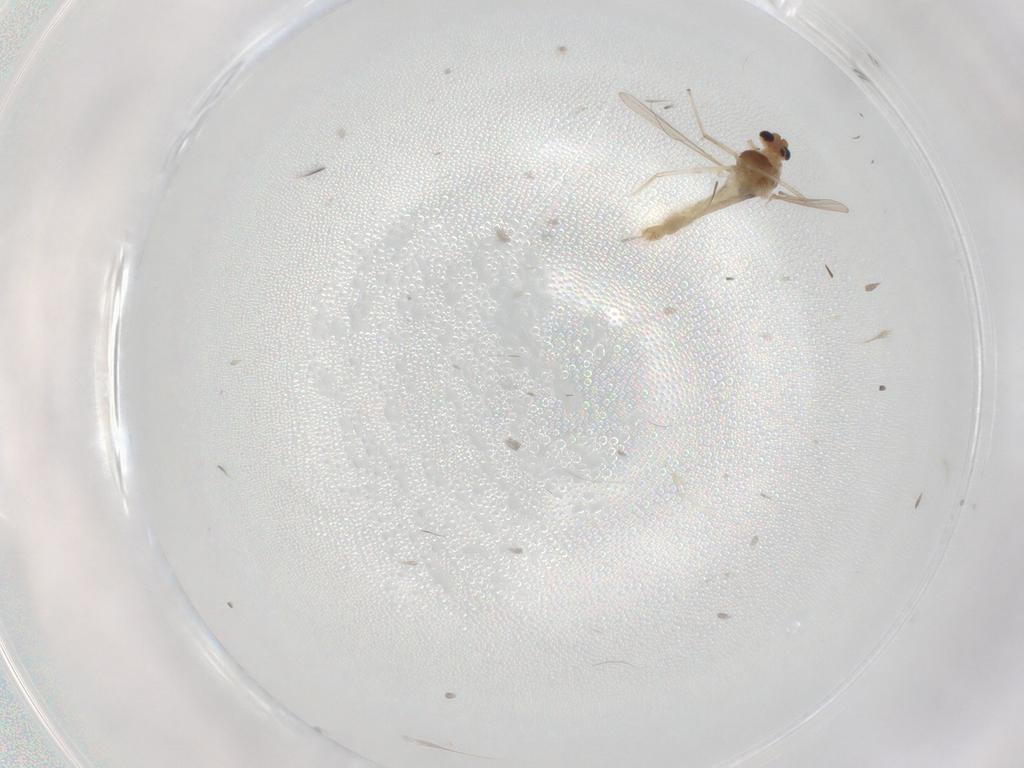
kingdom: Animalia
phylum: Arthropoda
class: Insecta
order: Diptera
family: Chironomidae
